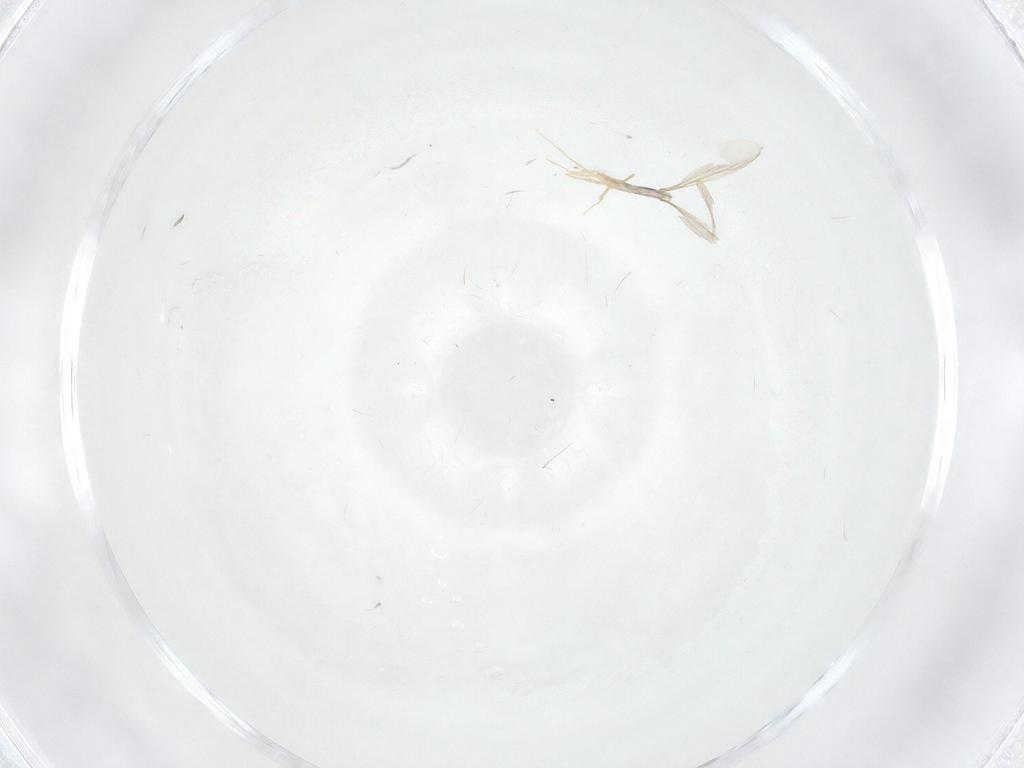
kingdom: Animalia
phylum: Arthropoda
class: Insecta
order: Diptera
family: Cecidomyiidae
